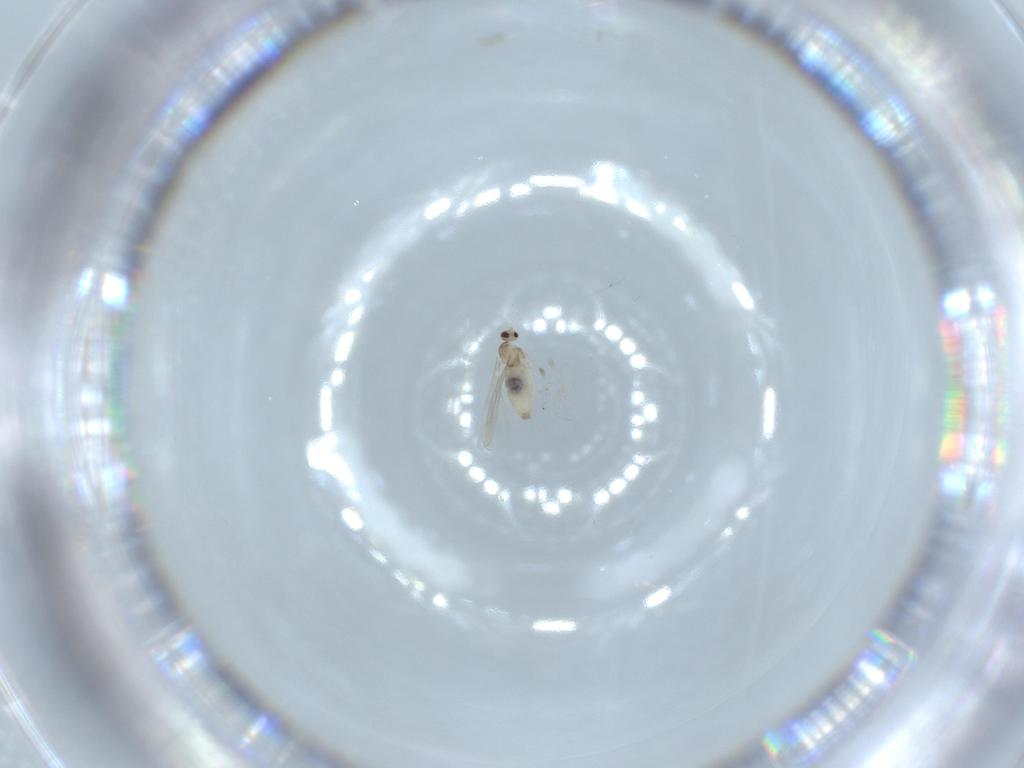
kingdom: Animalia
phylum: Arthropoda
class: Insecta
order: Diptera
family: Cecidomyiidae
